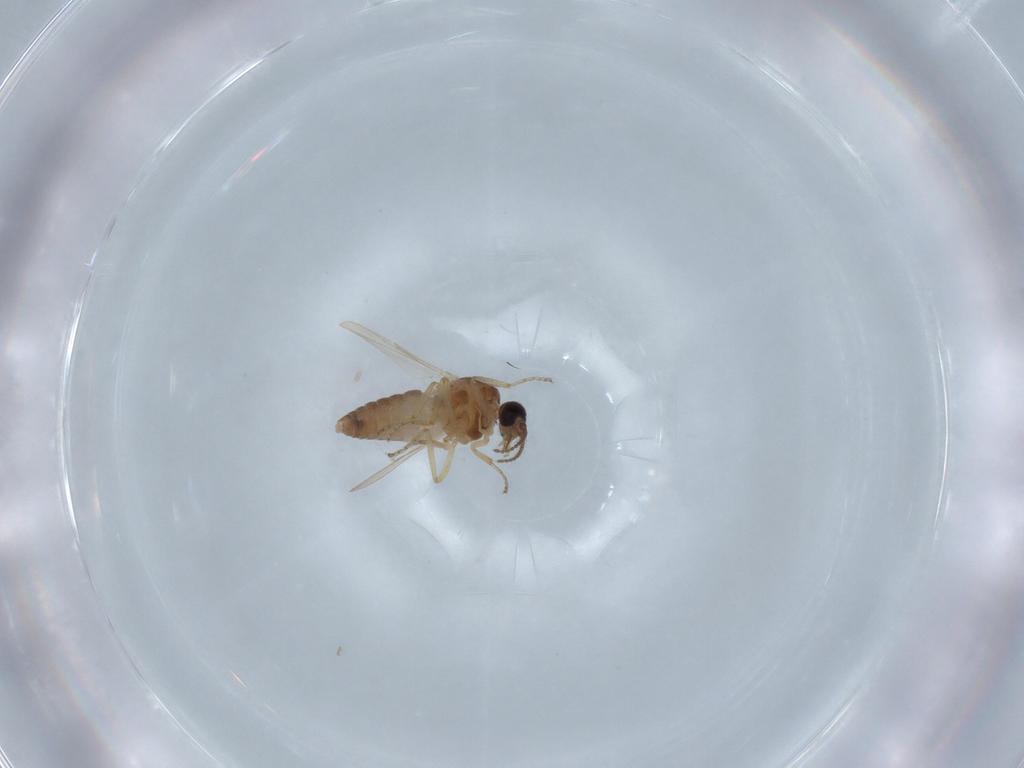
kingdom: Animalia
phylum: Arthropoda
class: Insecta
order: Diptera
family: Ceratopogonidae
